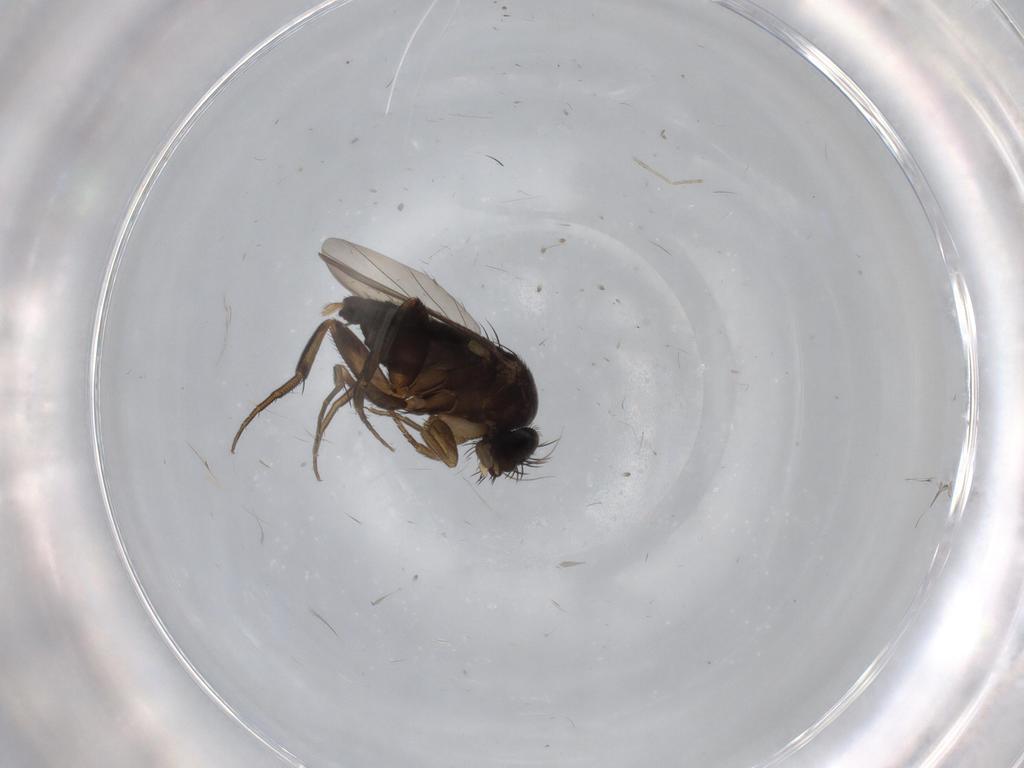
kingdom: Animalia
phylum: Arthropoda
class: Insecta
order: Diptera
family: Phoridae
